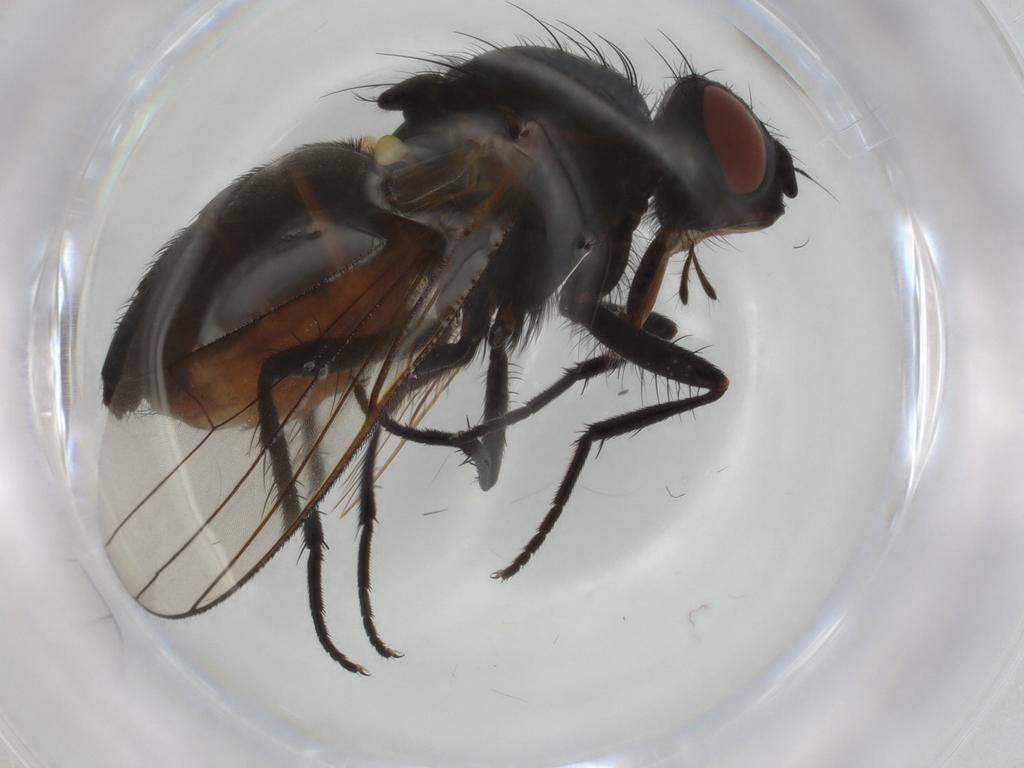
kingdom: Animalia
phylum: Arthropoda
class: Insecta
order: Diptera
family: Anthomyiidae
